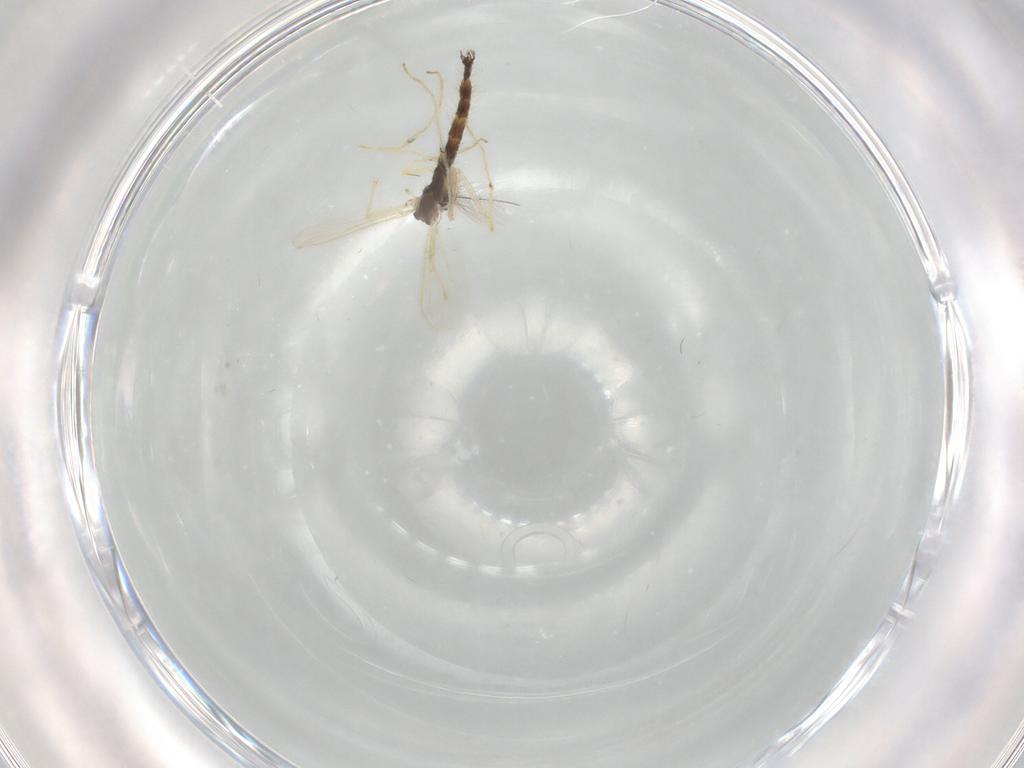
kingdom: Animalia
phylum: Arthropoda
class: Insecta
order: Diptera
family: Chironomidae
